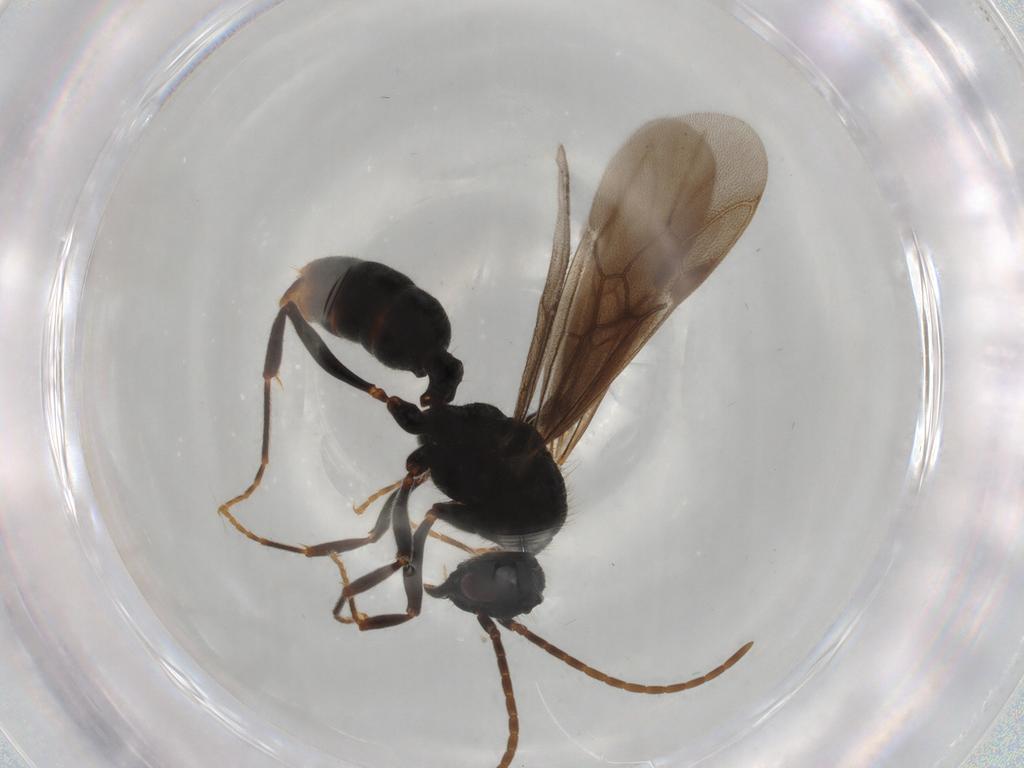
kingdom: Animalia
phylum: Arthropoda
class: Insecta
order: Hymenoptera
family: Formicidae
